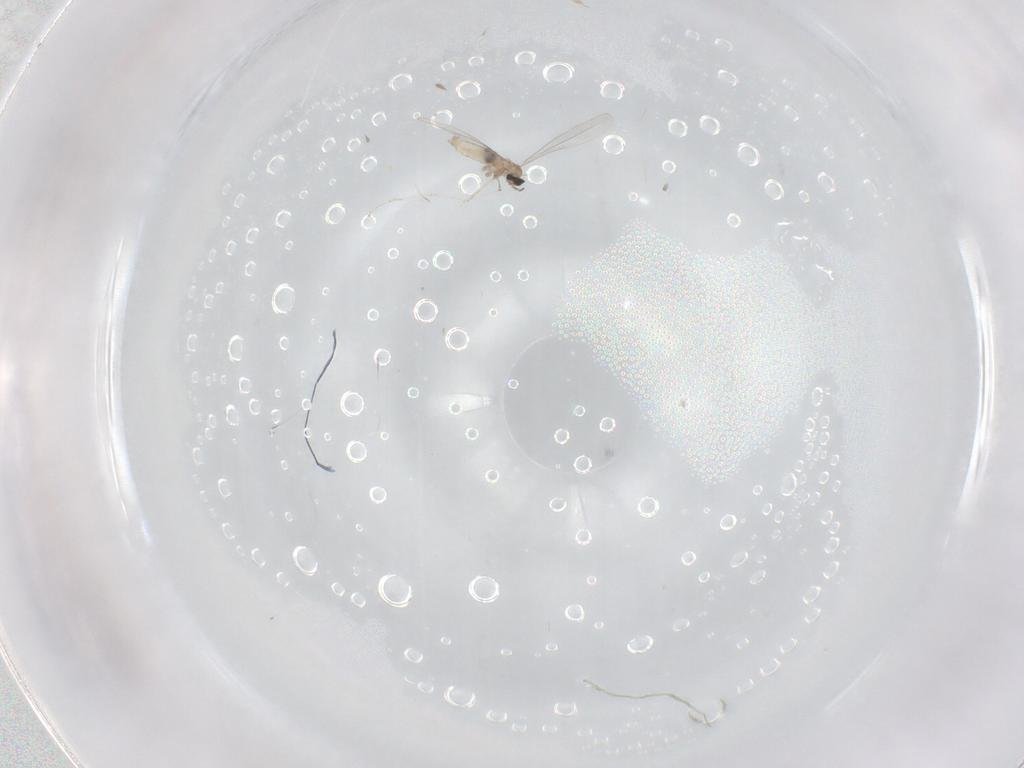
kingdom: Animalia
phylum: Arthropoda
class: Insecta
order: Diptera
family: Cecidomyiidae
